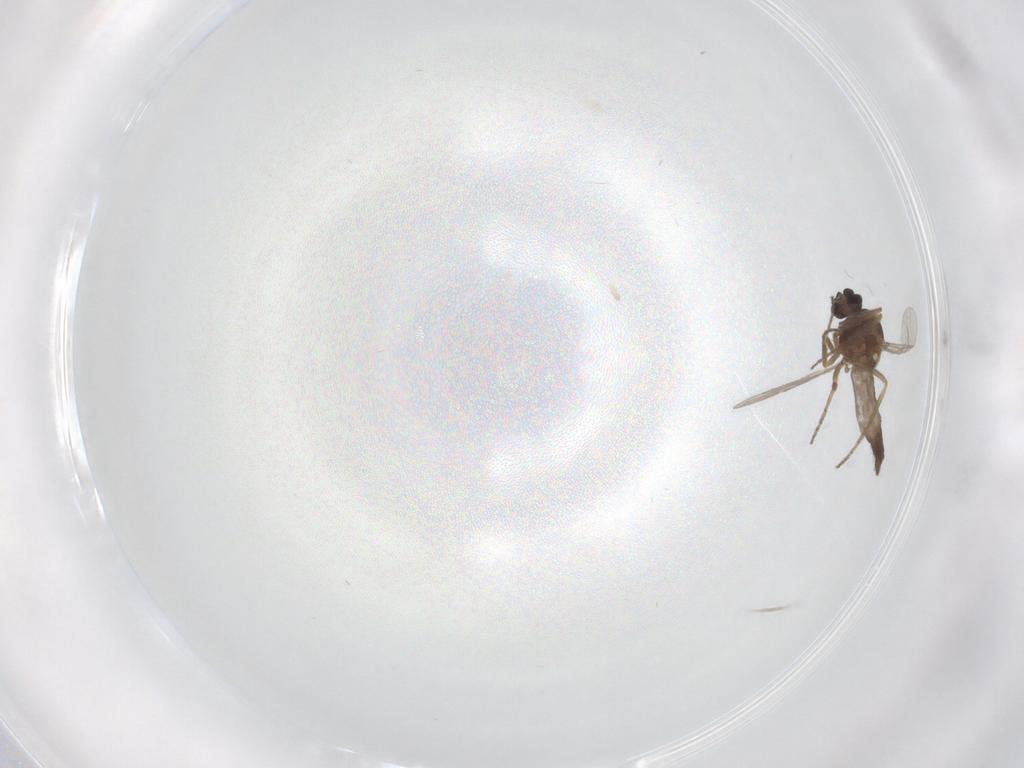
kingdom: Animalia
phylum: Arthropoda
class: Insecta
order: Diptera
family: Psychodidae
